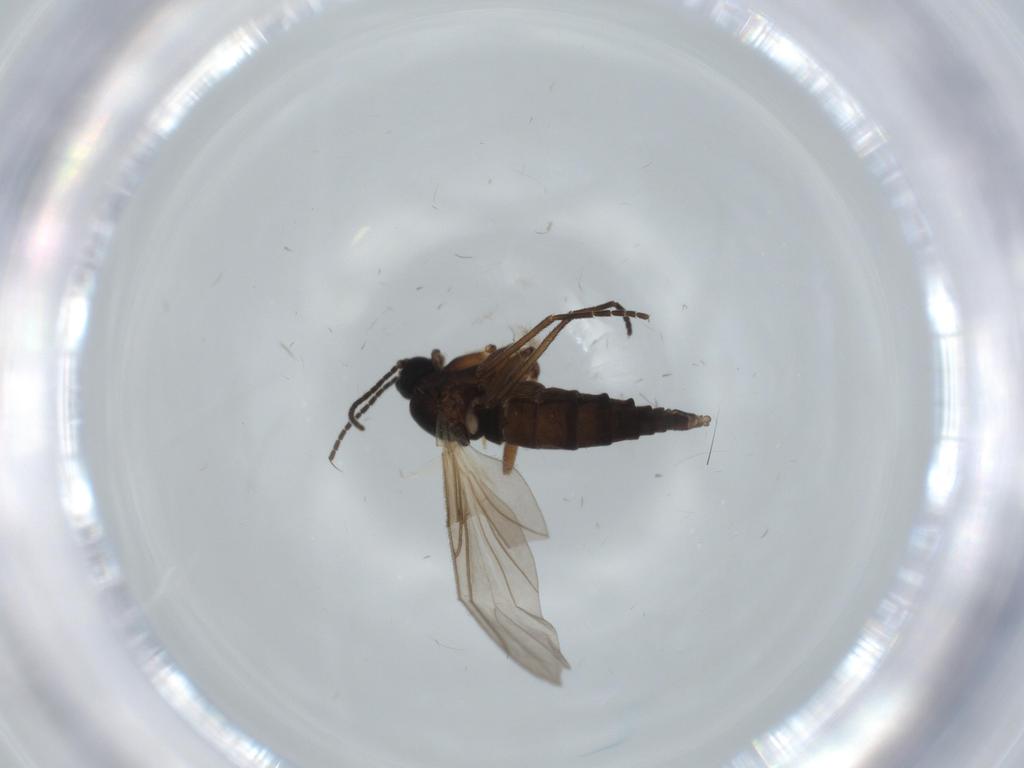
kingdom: Animalia
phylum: Arthropoda
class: Insecta
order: Diptera
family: Sciaridae
